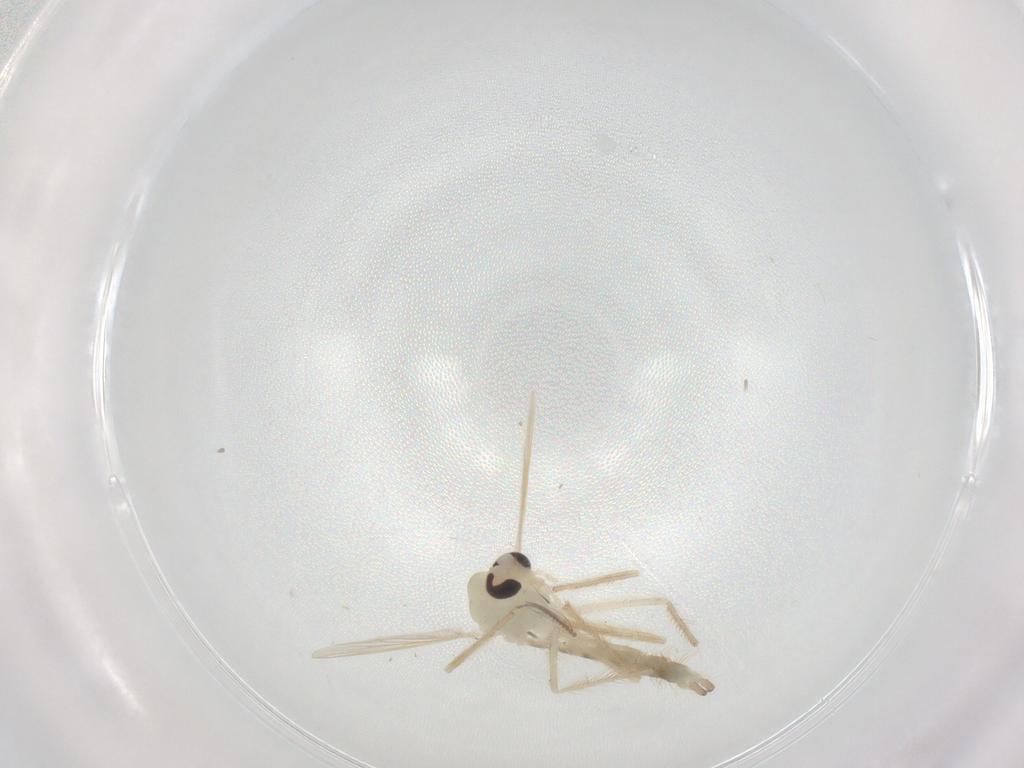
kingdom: Animalia
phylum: Arthropoda
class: Insecta
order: Diptera
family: Chironomidae
